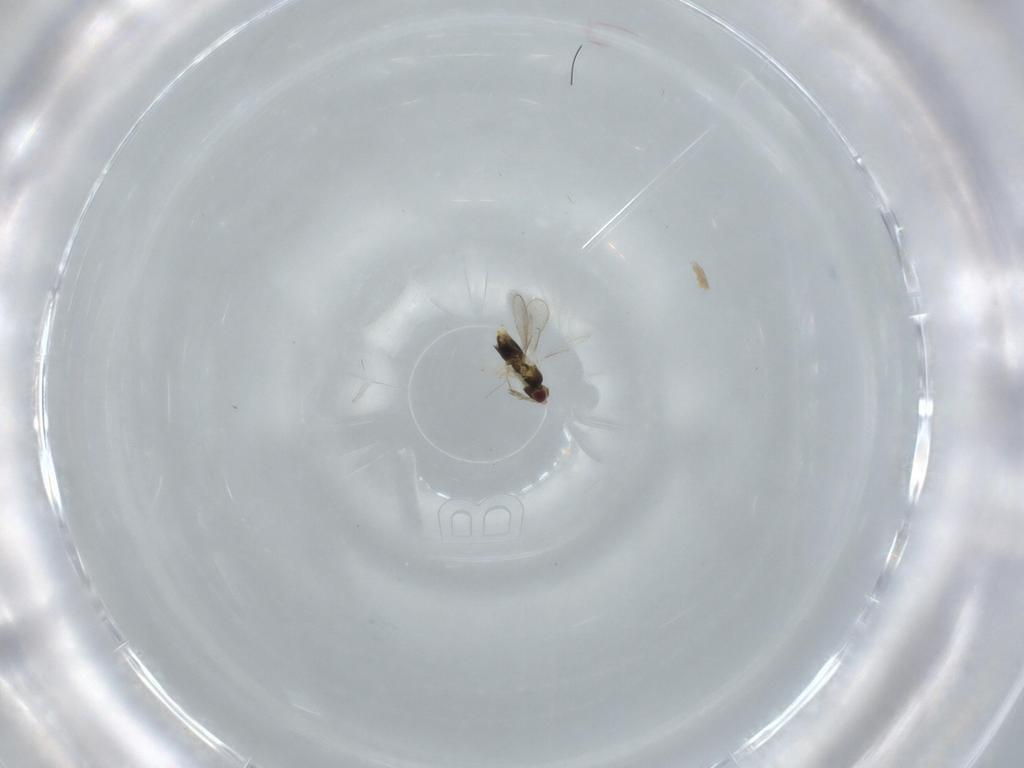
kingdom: Animalia
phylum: Arthropoda
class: Insecta
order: Hymenoptera
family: Aphelinidae
